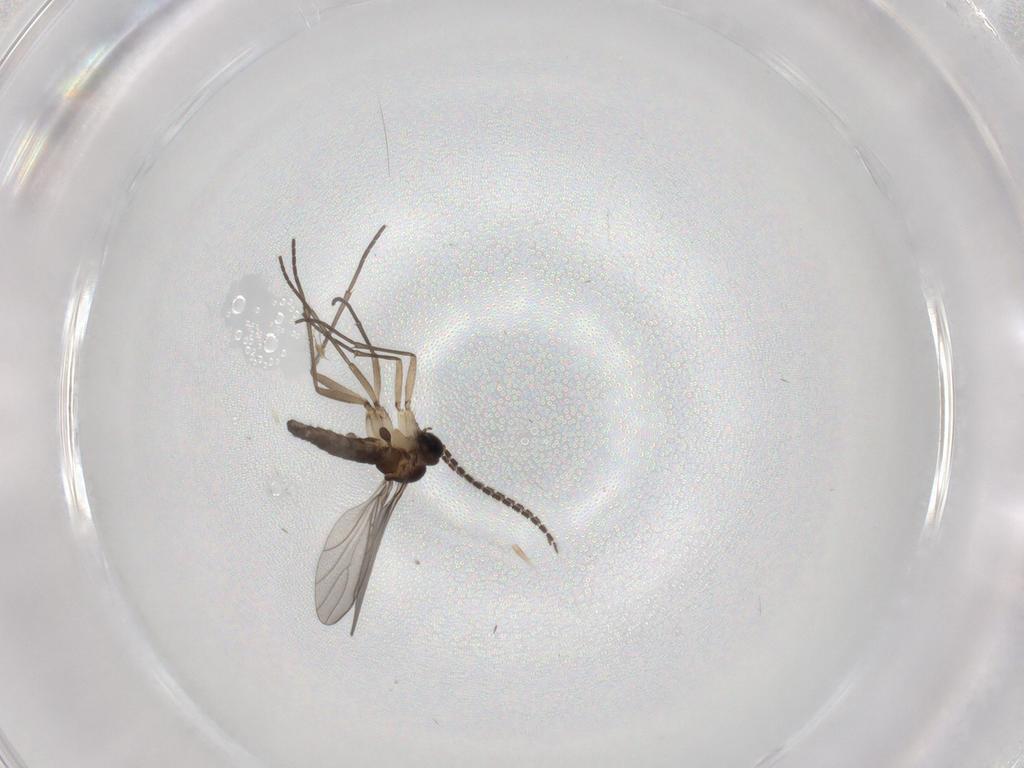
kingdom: Animalia
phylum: Arthropoda
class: Insecta
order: Diptera
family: Sciaridae
